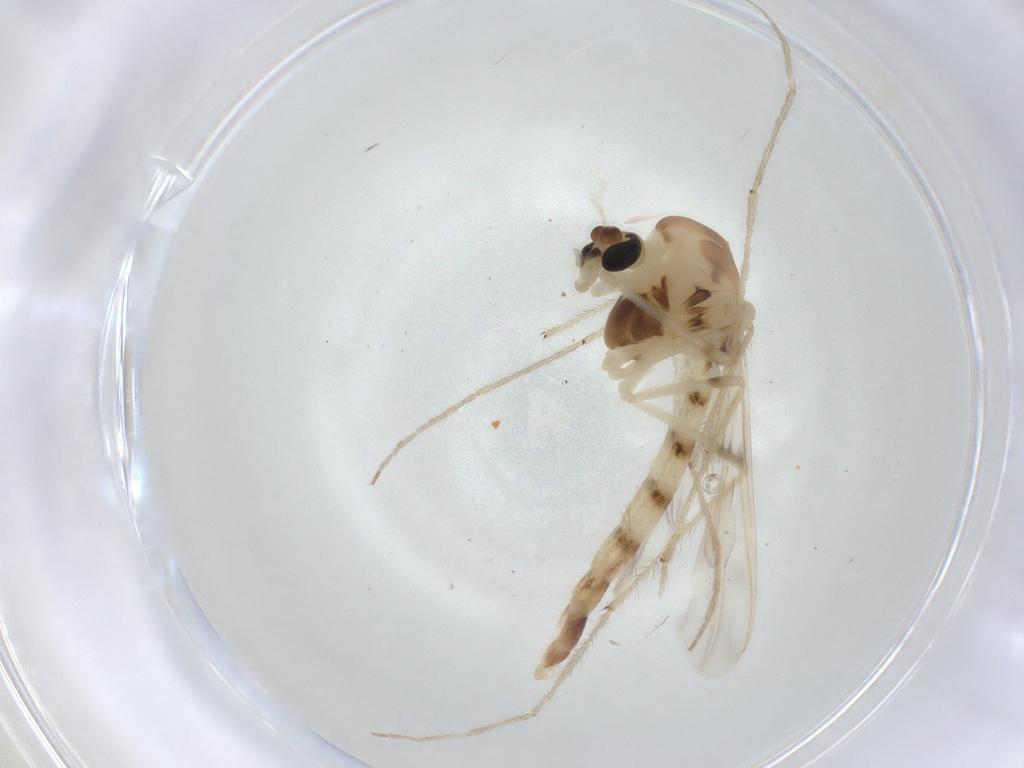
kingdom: Animalia
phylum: Arthropoda
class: Insecta
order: Diptera
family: Chironomidae
